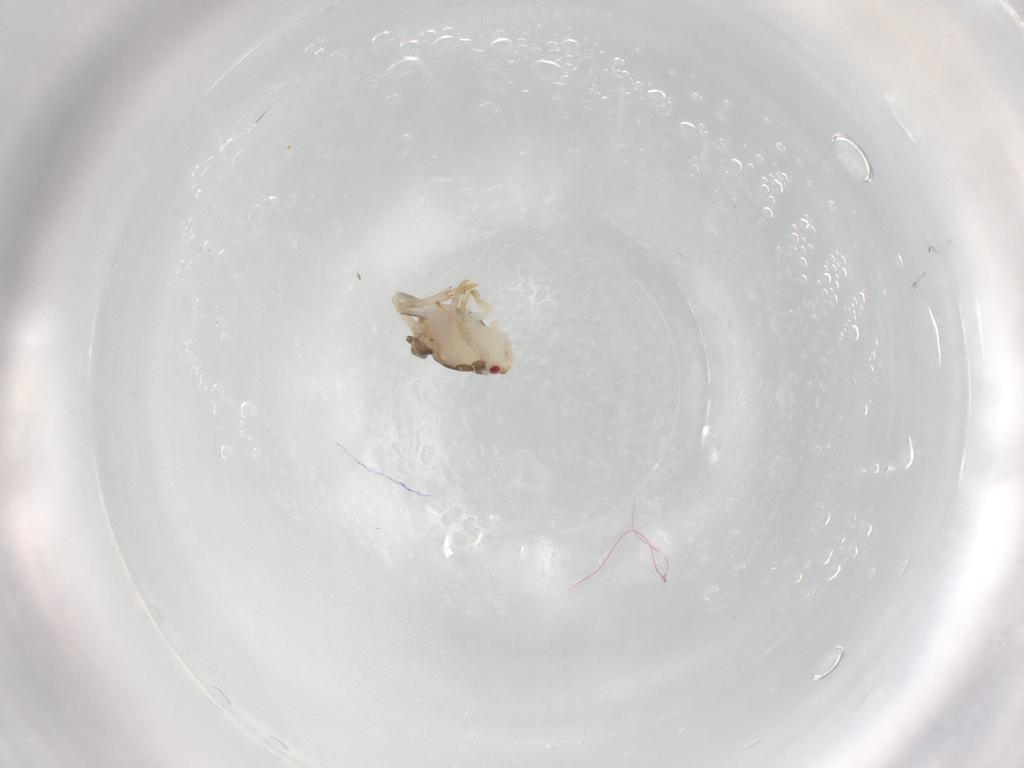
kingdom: Animalia
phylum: Arthropoda
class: Insecta
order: Hemiptera
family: Ricaniidae
